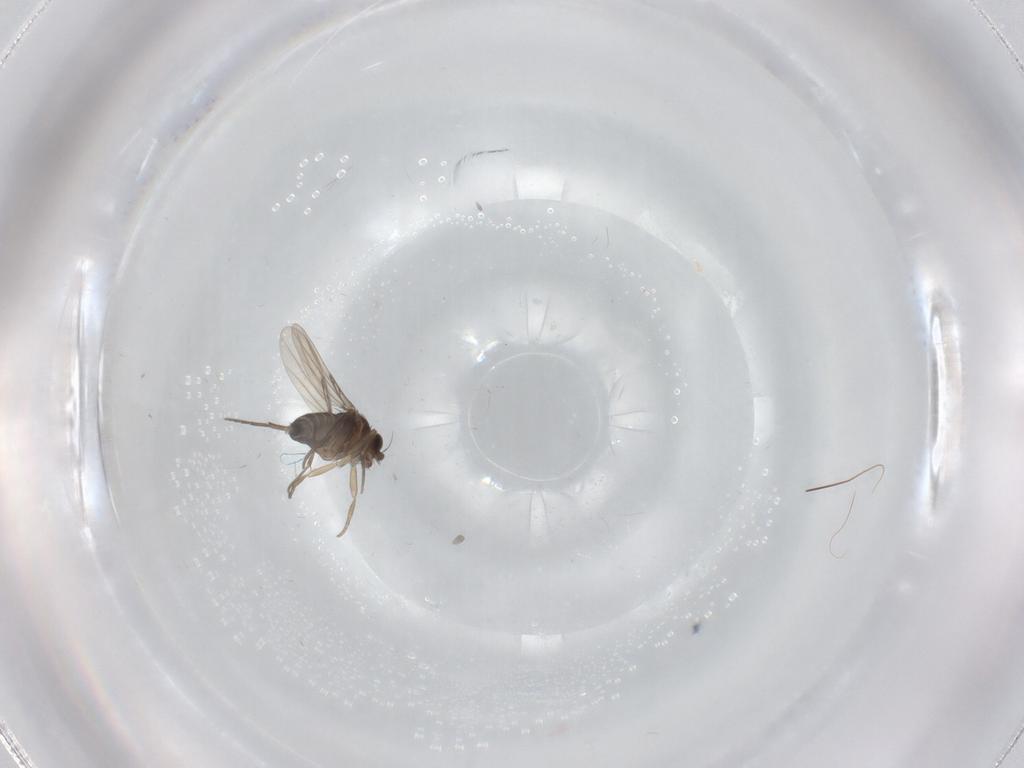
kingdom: Animalia
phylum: Arthropoda
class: Insecta
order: Diptera
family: Phoridae
